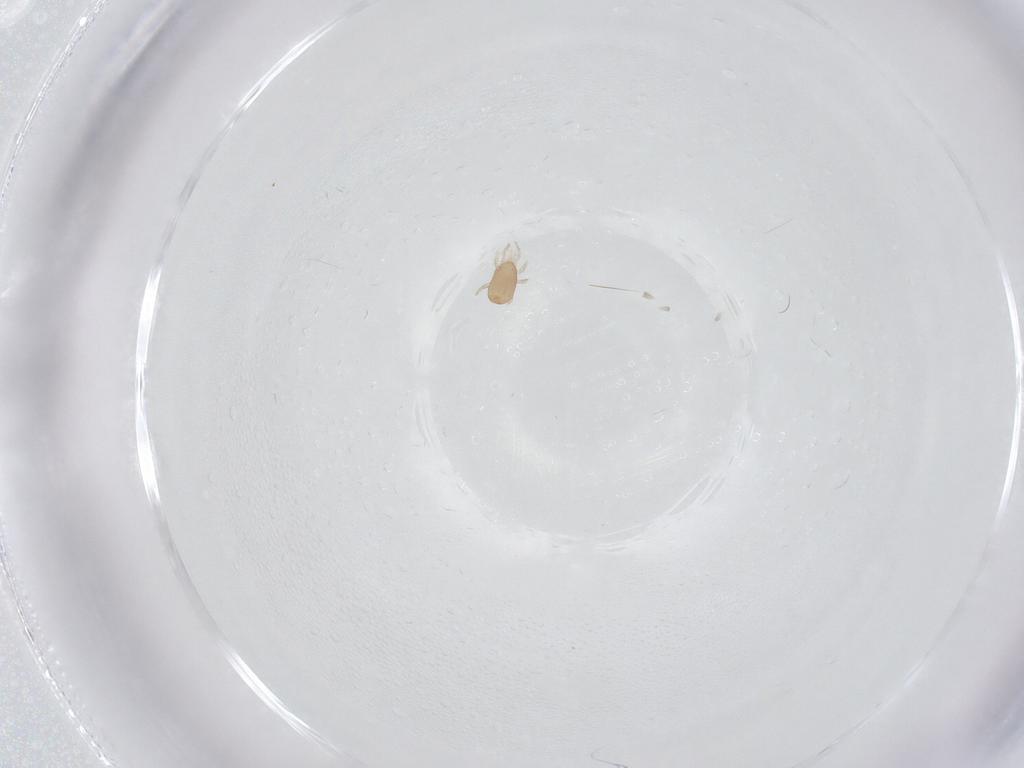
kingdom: Animalia
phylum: Arthropoda
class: Arachnida
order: Mesostigmata
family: Ascidae
